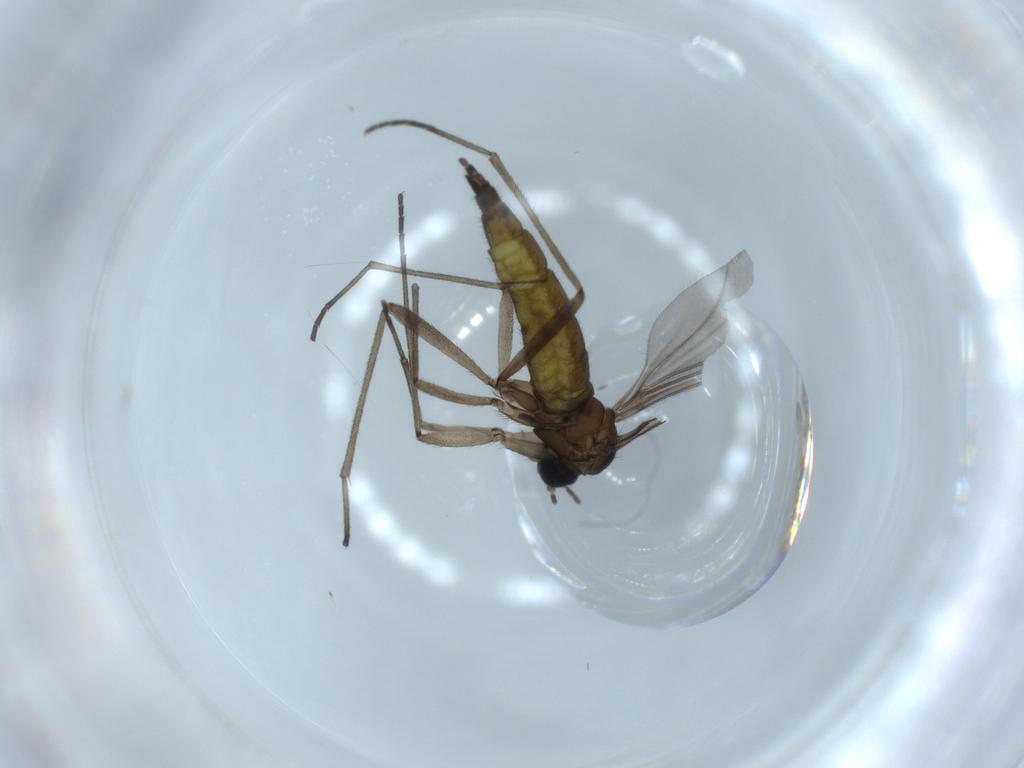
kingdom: Animalia
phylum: Arthropoda
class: Insecta
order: Diptera
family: Sciaridae
